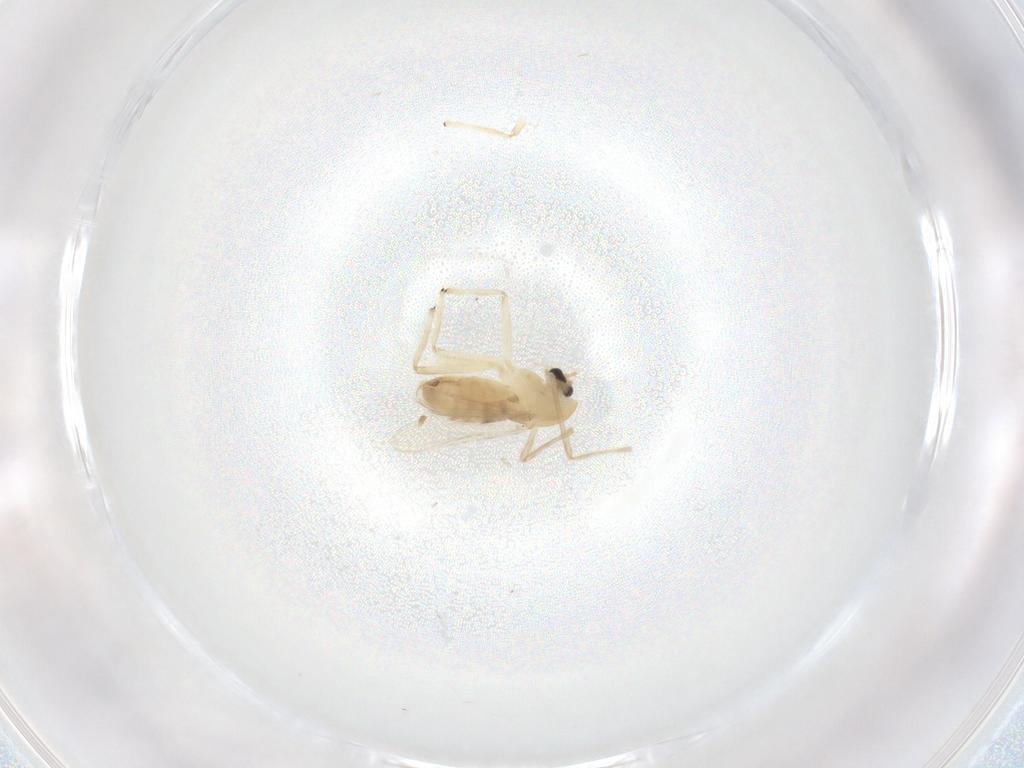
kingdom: Animalia
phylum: Arthropoda
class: Insecta
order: Diptera
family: Chironomidae
